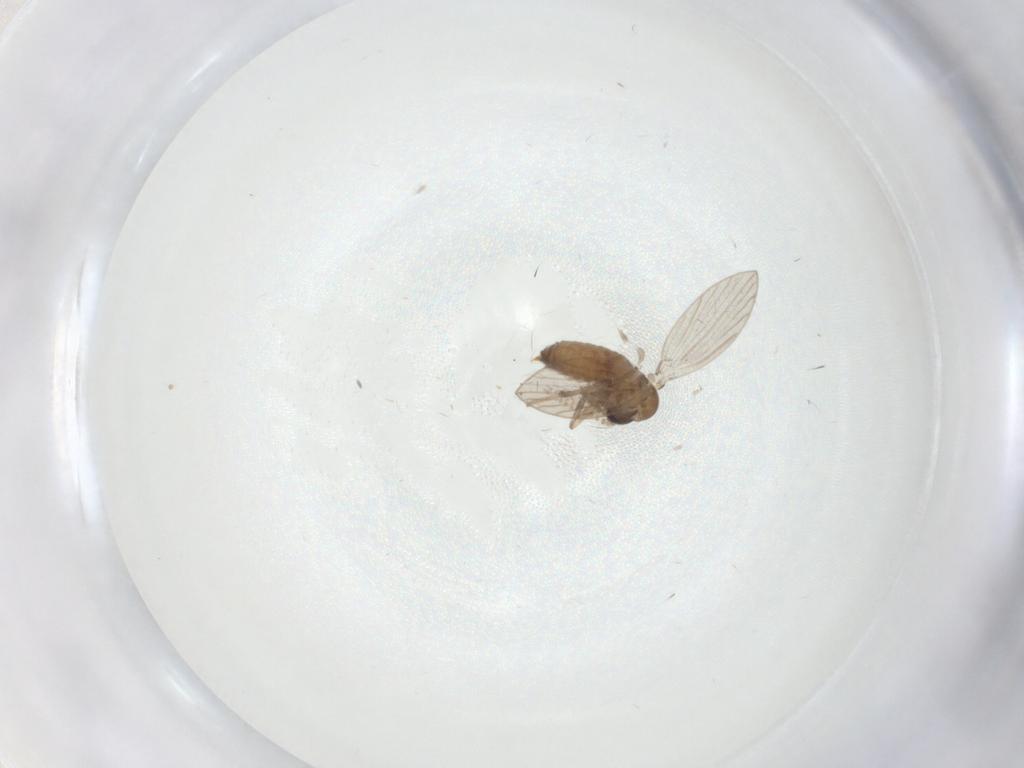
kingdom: Animalia
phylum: Arthropoda
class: Insecta
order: Diptera
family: Psychodidae
